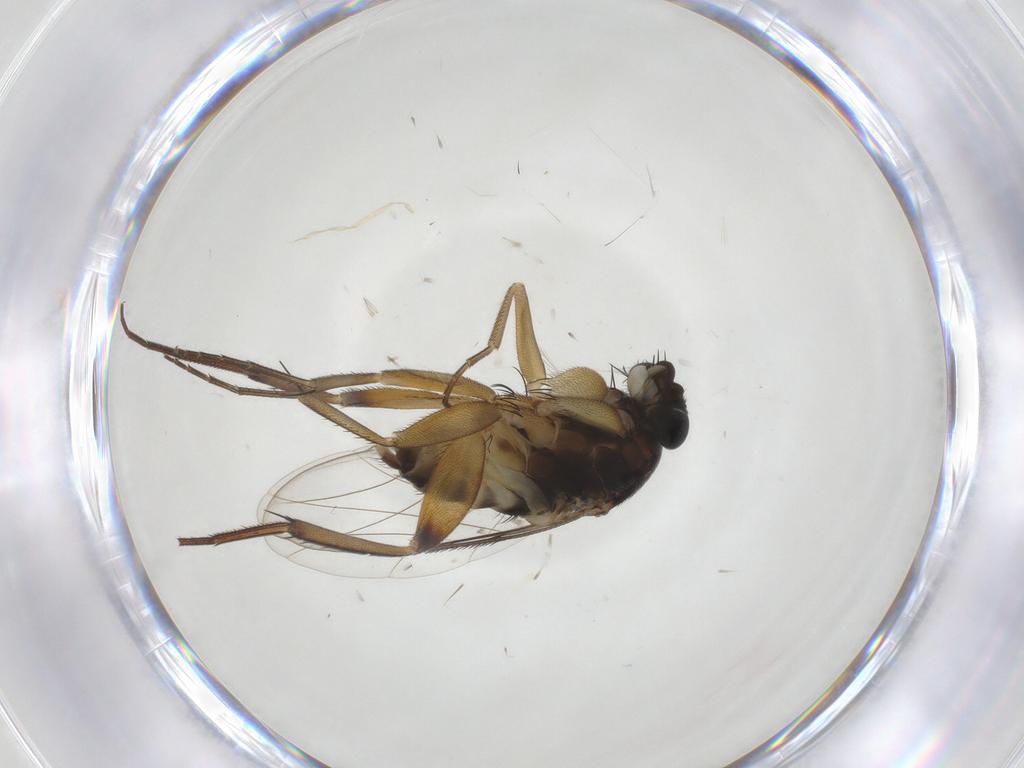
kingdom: Animalia
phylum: Arthropoda
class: Insecta
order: Diptera
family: Phoridae
